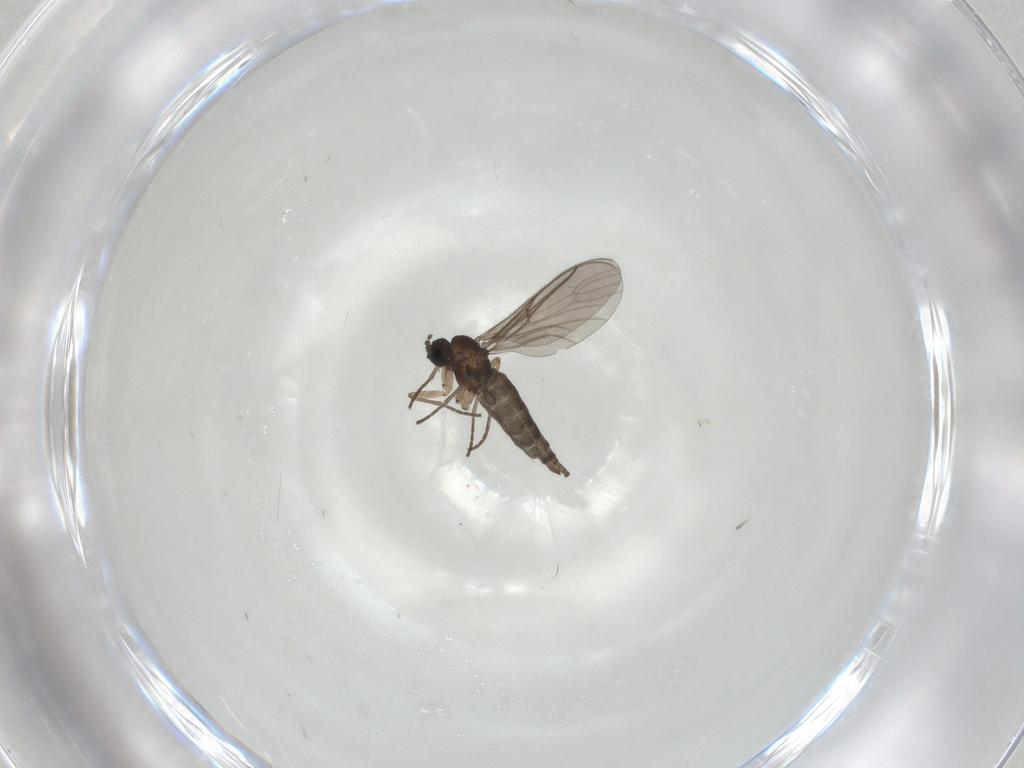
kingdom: Animalia
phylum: Arthropoda
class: Insecta
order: Diptera
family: Sciaridae
